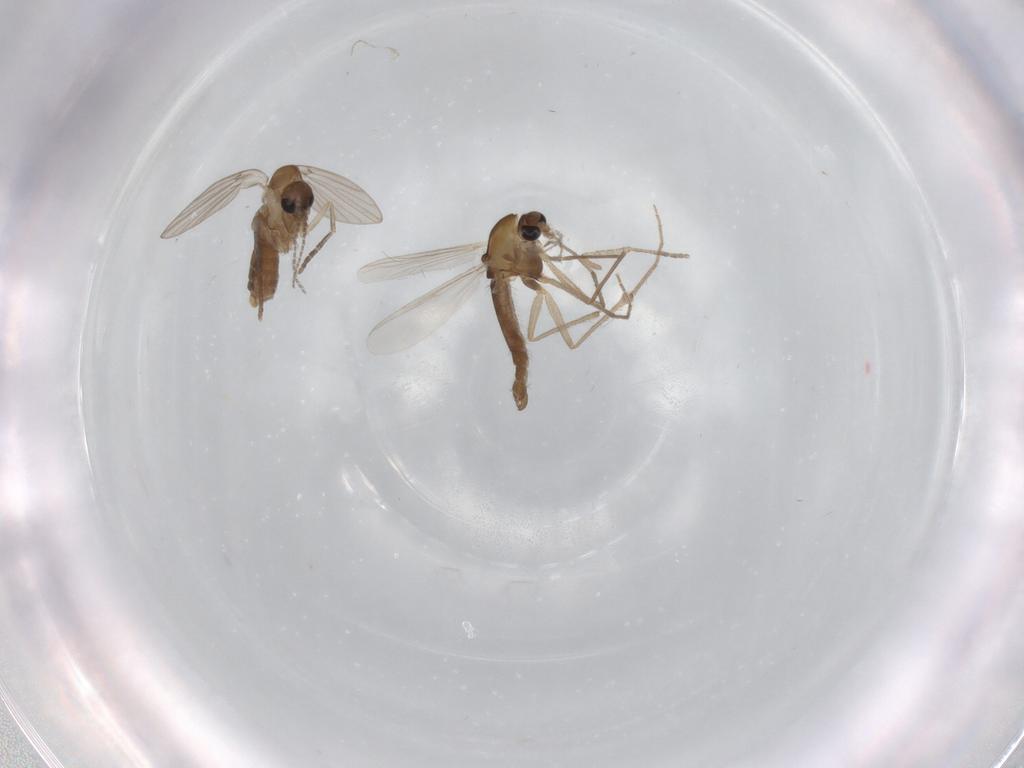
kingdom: Animalia
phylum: Arthropoda
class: Insecta
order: Diptera
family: Chironomidae
